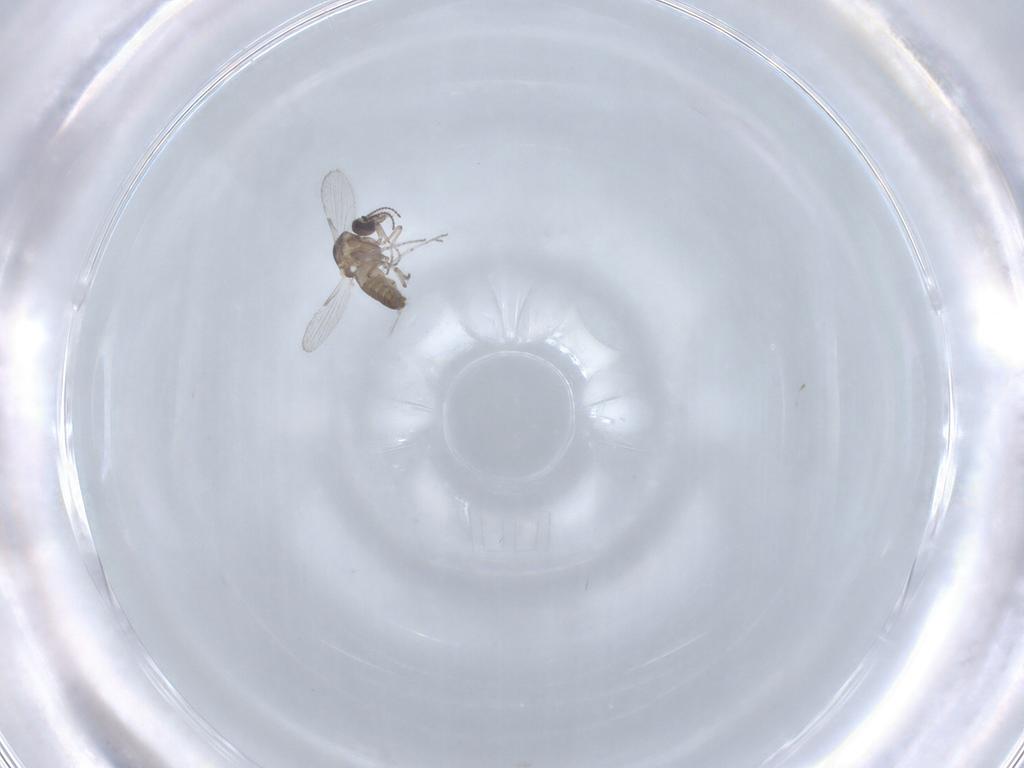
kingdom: Animalia
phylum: Arthropoda
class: Insecta
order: Diptera
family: Ceratopogonidae
